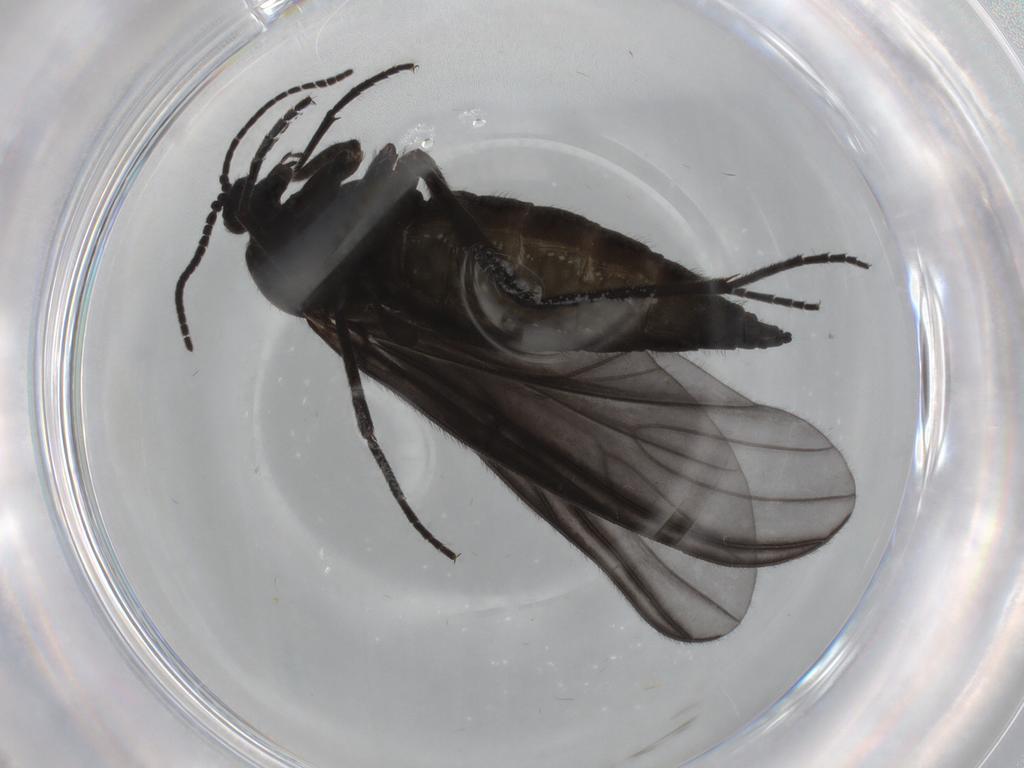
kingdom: Animalia
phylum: Arthropoda
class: Insecta
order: Diptera
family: Sciaridae
